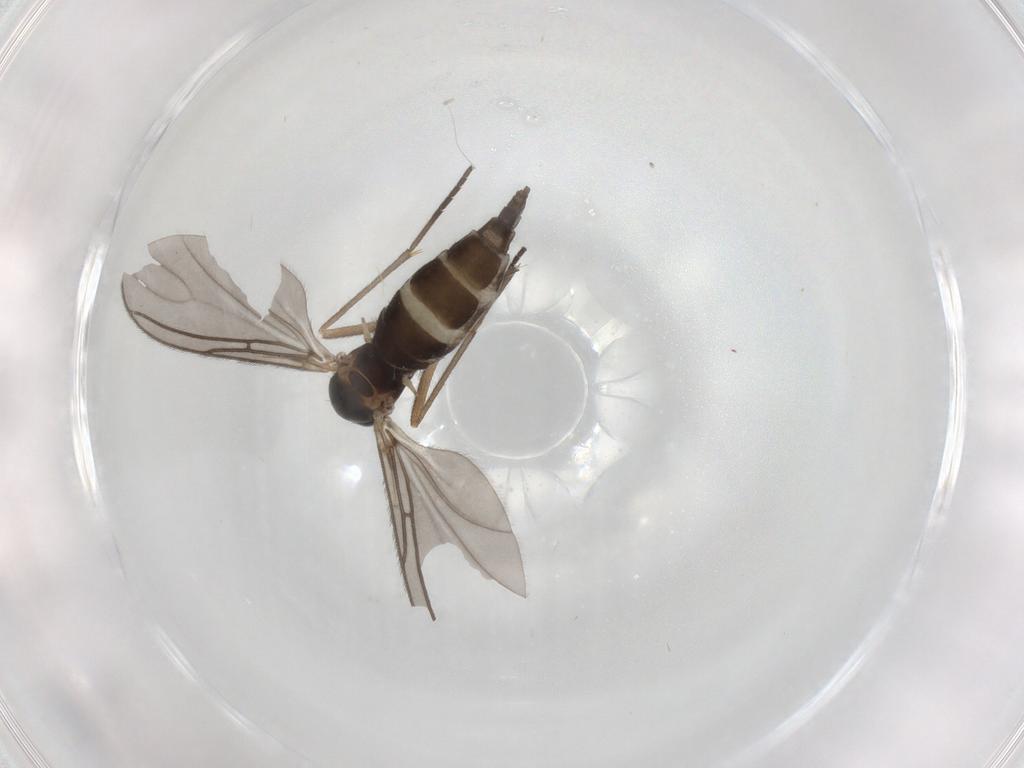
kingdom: Animalia
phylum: Arthropoda
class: Insecta
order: Diptera
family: Sciaridae
